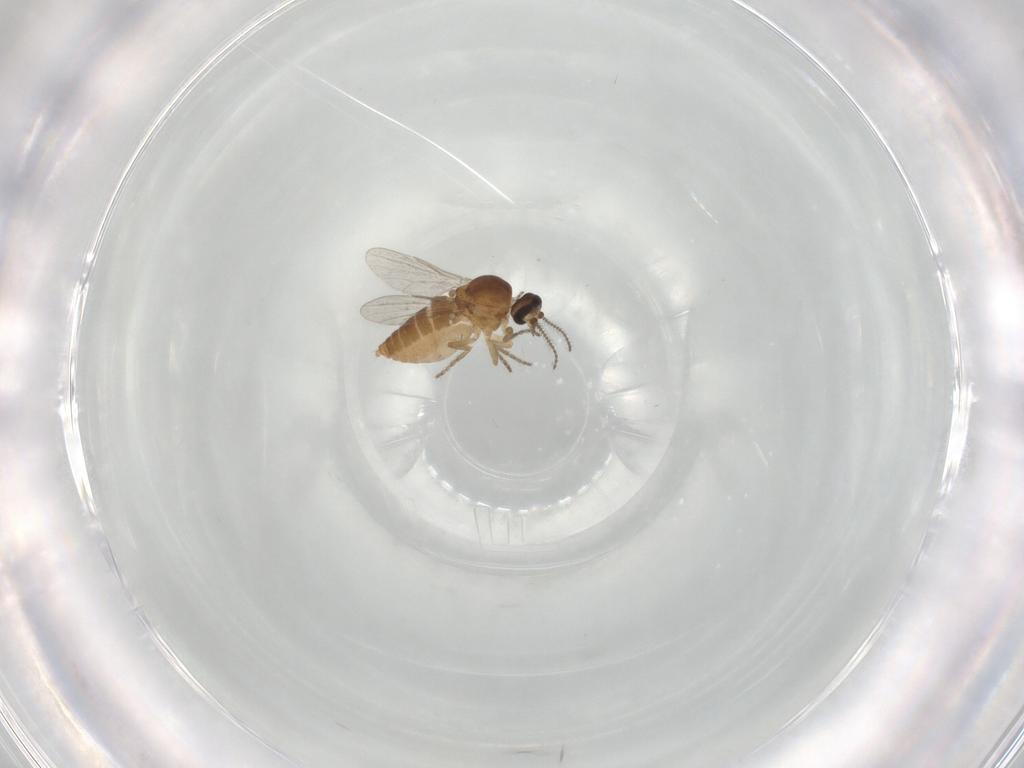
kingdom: Animalia
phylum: Arthropoda
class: Insecta
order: Diptera
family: Ceratopogonidae
